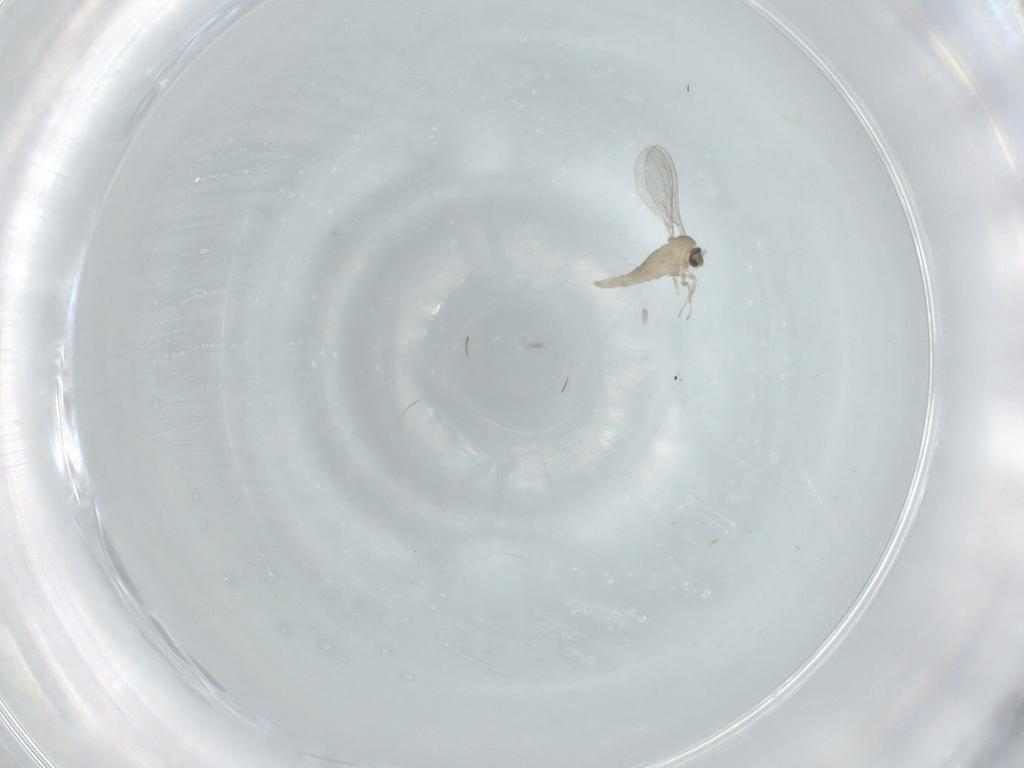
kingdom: Animalia
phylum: Arthropoda
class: Insecta
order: Diptera
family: Cecidomyiidae
